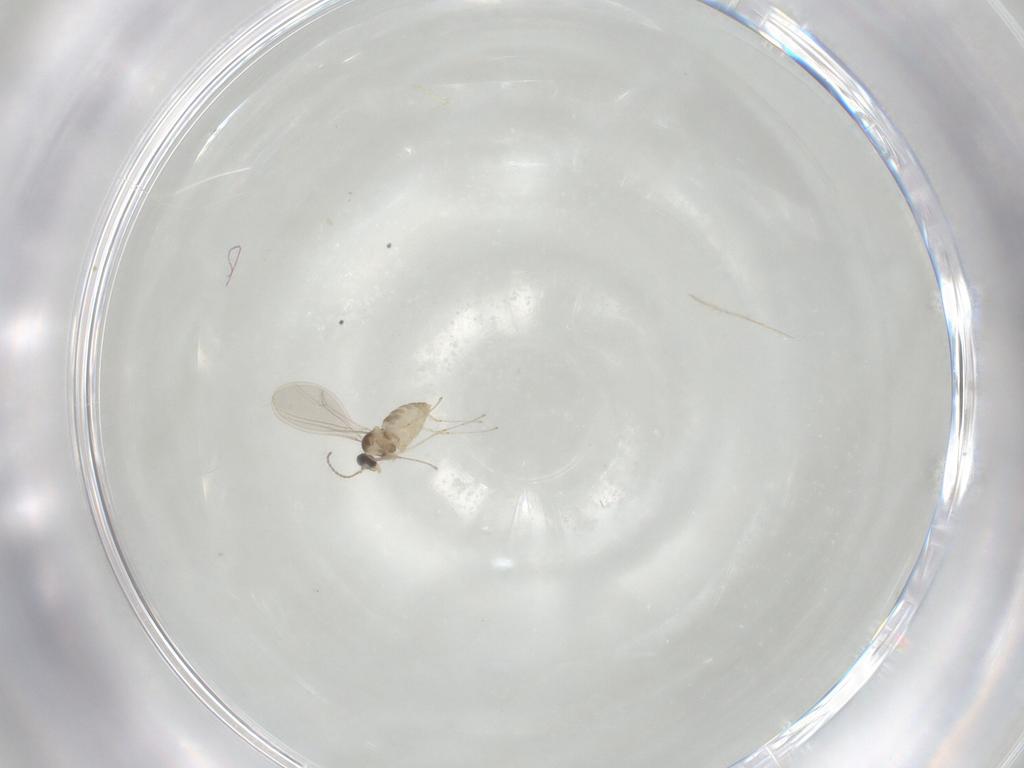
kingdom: Animalia
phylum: Arthropoda
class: Insecta
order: Diptera
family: Cecidomyiidae
